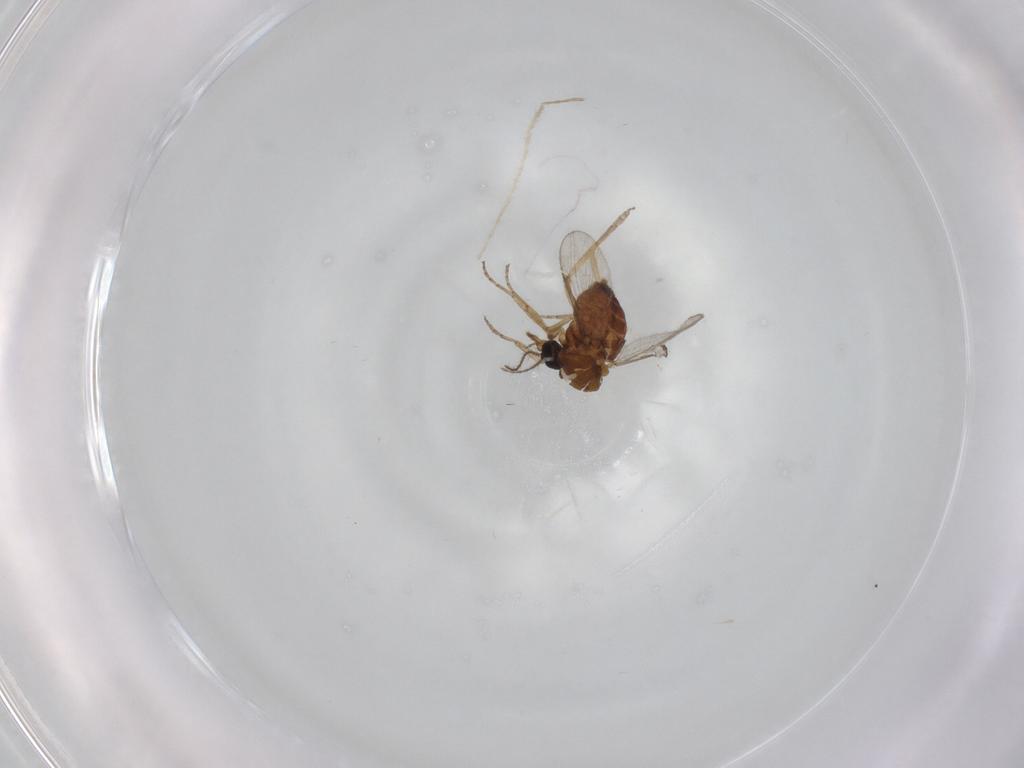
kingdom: Animalia
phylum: Arthropoda
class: Insecta
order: Diptera
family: Ceratopogonidae
